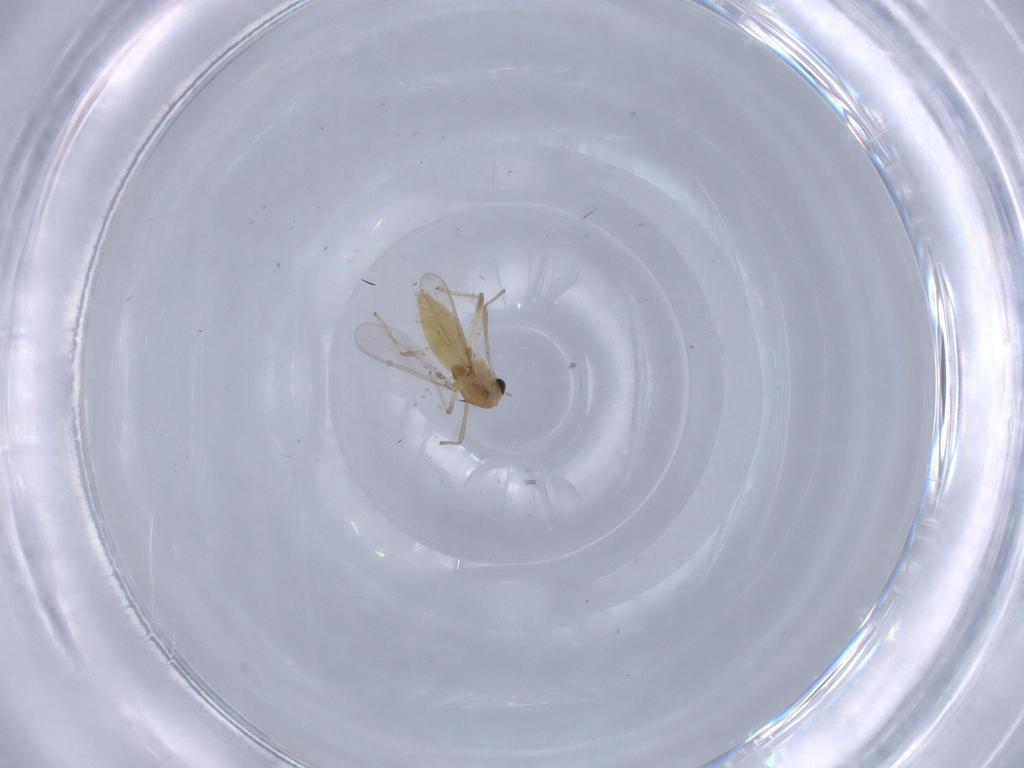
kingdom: Animalia
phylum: Arthropoda
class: Insecta
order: Diptera
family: Chironomidae
